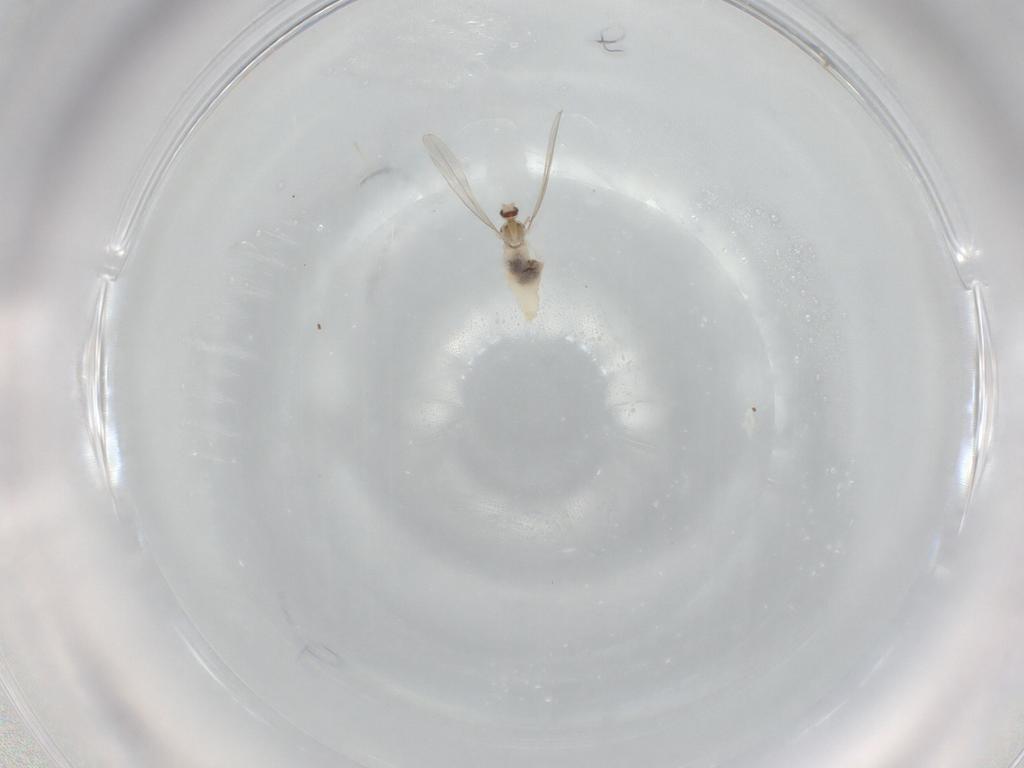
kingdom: Animalia
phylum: Arthropoda
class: Insecta
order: Diptera
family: Cecidomyiidae
